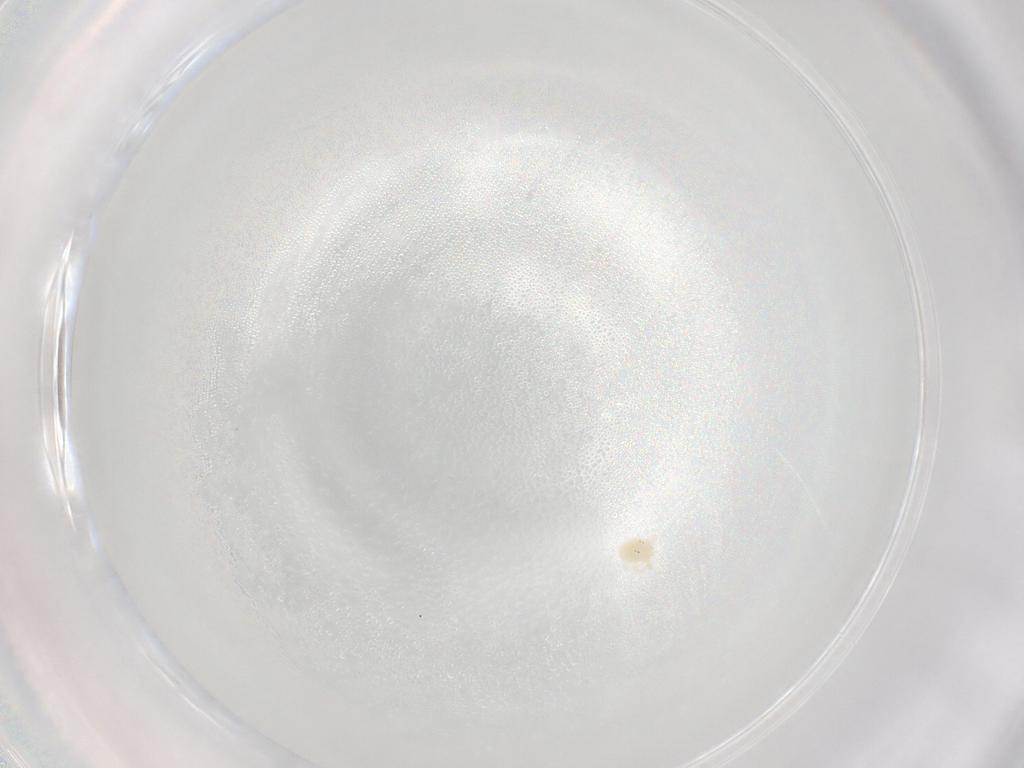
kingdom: Animalia
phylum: Arthropoda
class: Arachnida
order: Trombidiformes
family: Hydryphantidae
